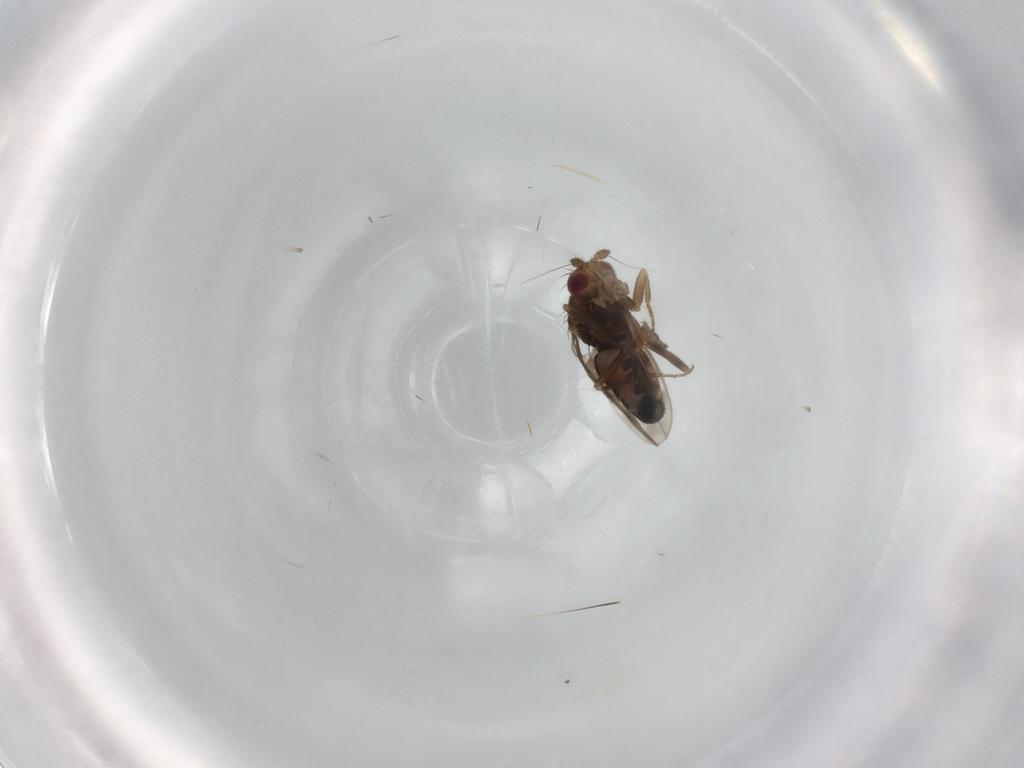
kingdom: Animalia
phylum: Arthropoda
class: Insecta
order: Diptera
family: Sphaeroceridae
